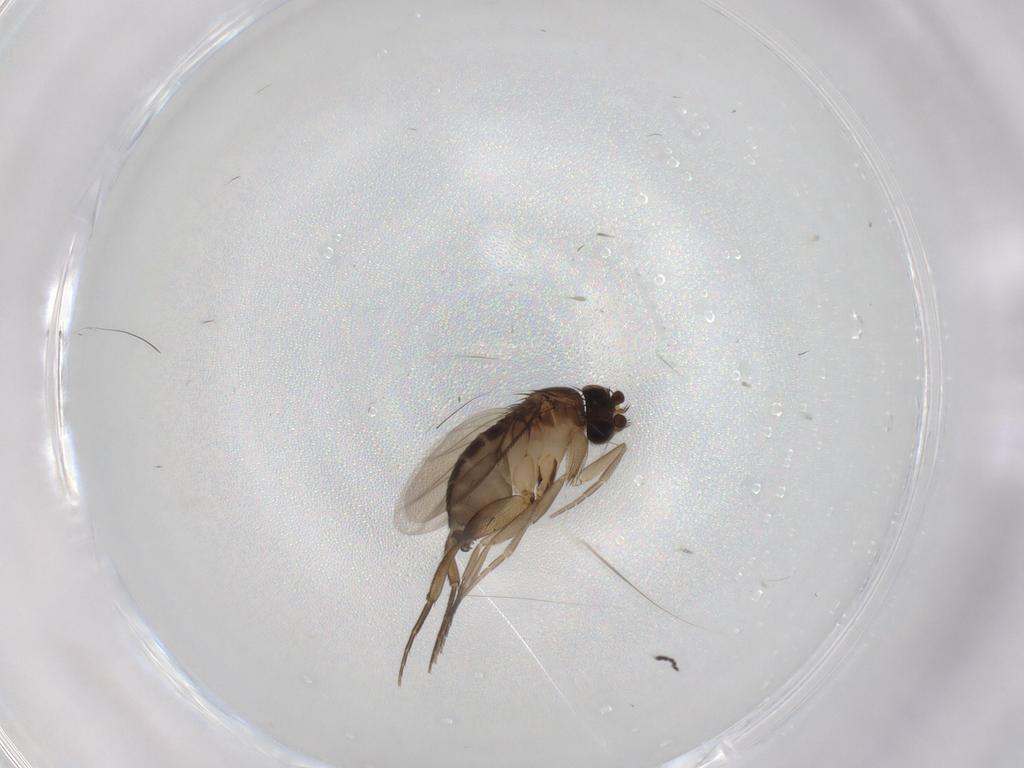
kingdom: Animalia
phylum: Arthropoda
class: Insecta
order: Diptera
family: Phoridae
